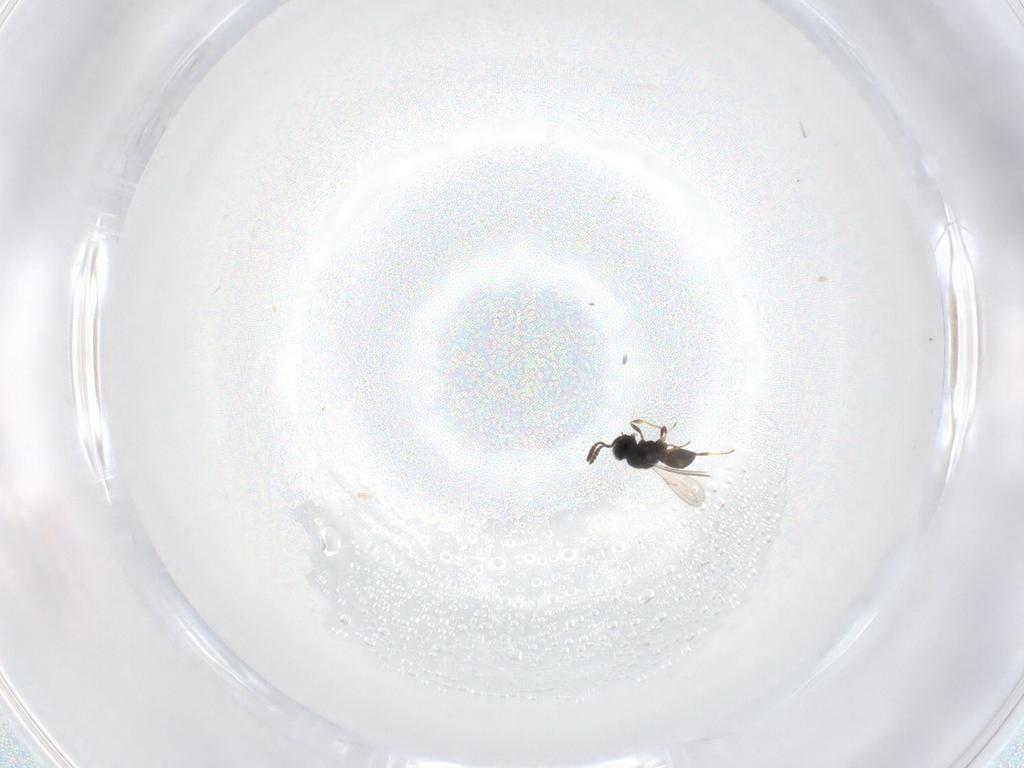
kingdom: Animalia
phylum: Arthropoda
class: Insecta
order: Hymenoptera
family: Scelionidae
